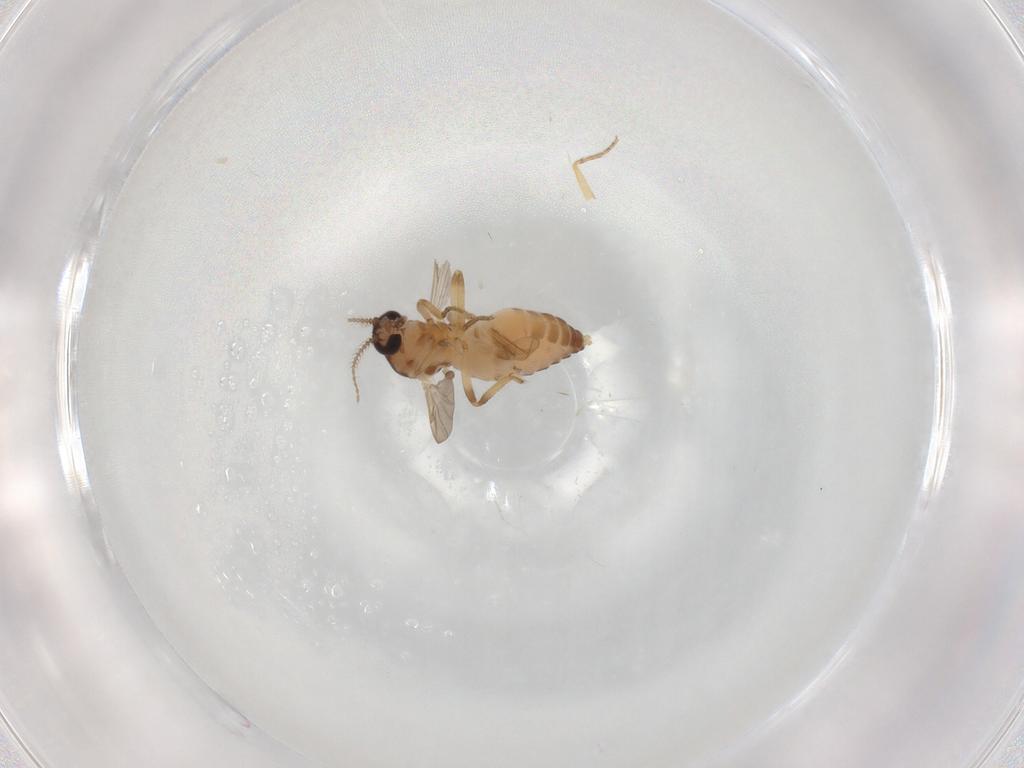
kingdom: Animalia
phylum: Arthropoda
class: Insecta
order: Diptera
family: Ceratopogonidae
